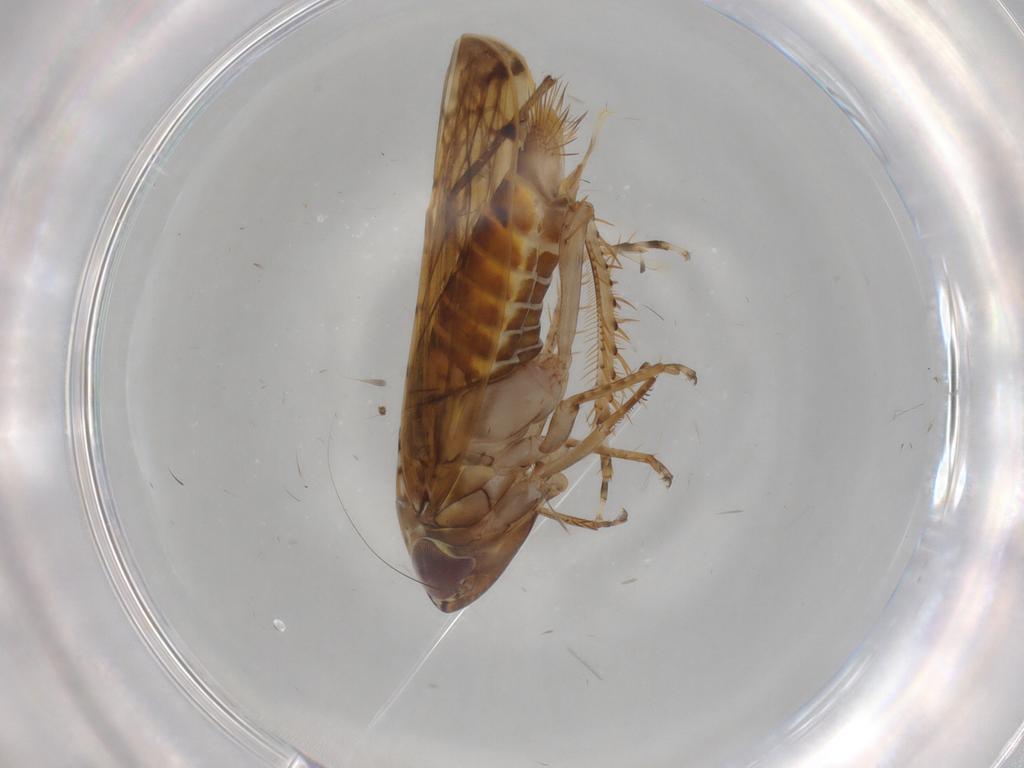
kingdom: Animalia
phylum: Arthropoda
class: Insecta
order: Hemiptera
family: Cicadellidae
